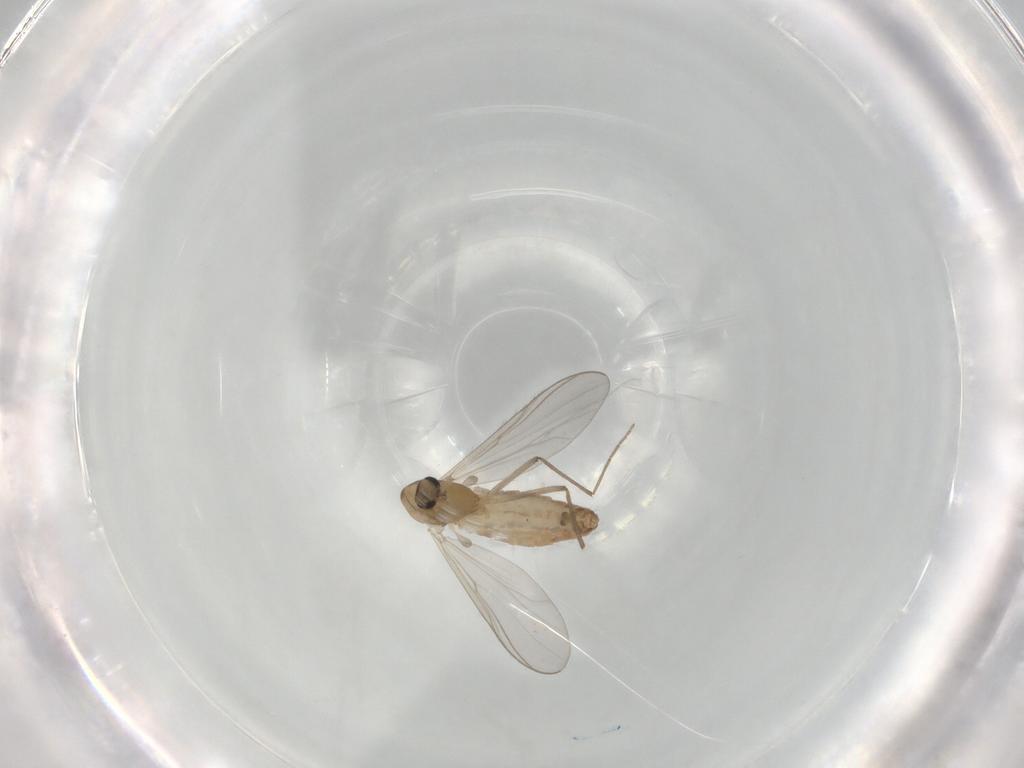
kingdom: Animalia
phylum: Arthropoda
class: Insecta
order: Diptera
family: Chironomidae
